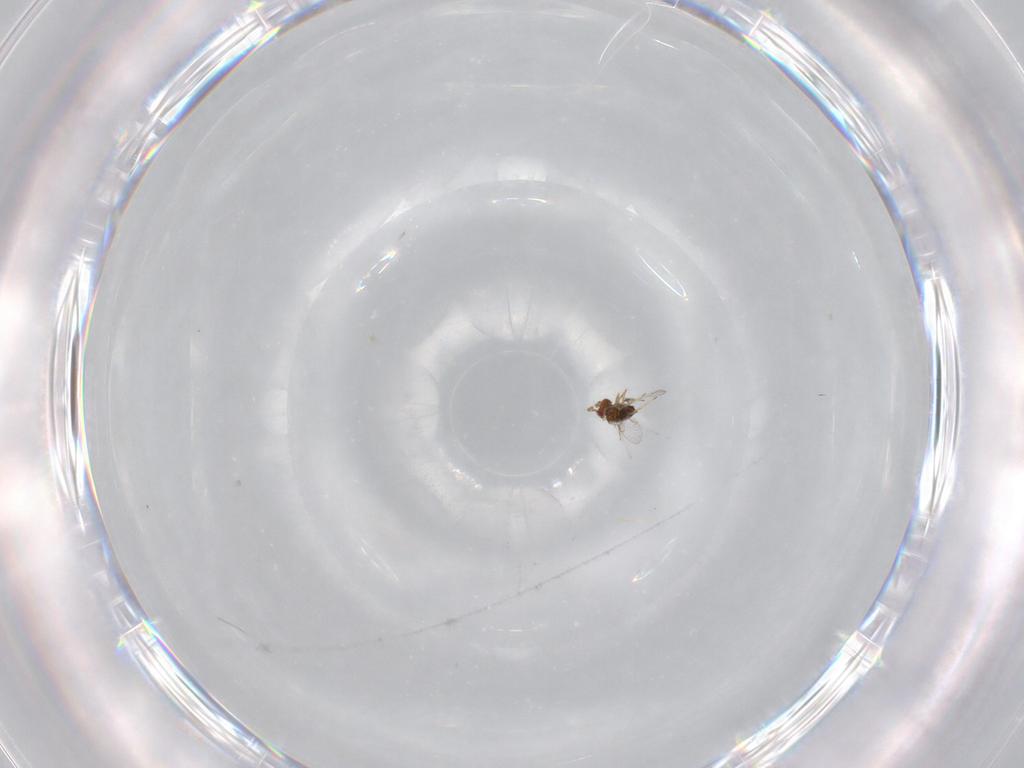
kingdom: Animalia
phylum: Arthropoda
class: Insecta
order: Hymenoptera
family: Trichogrammatidae
